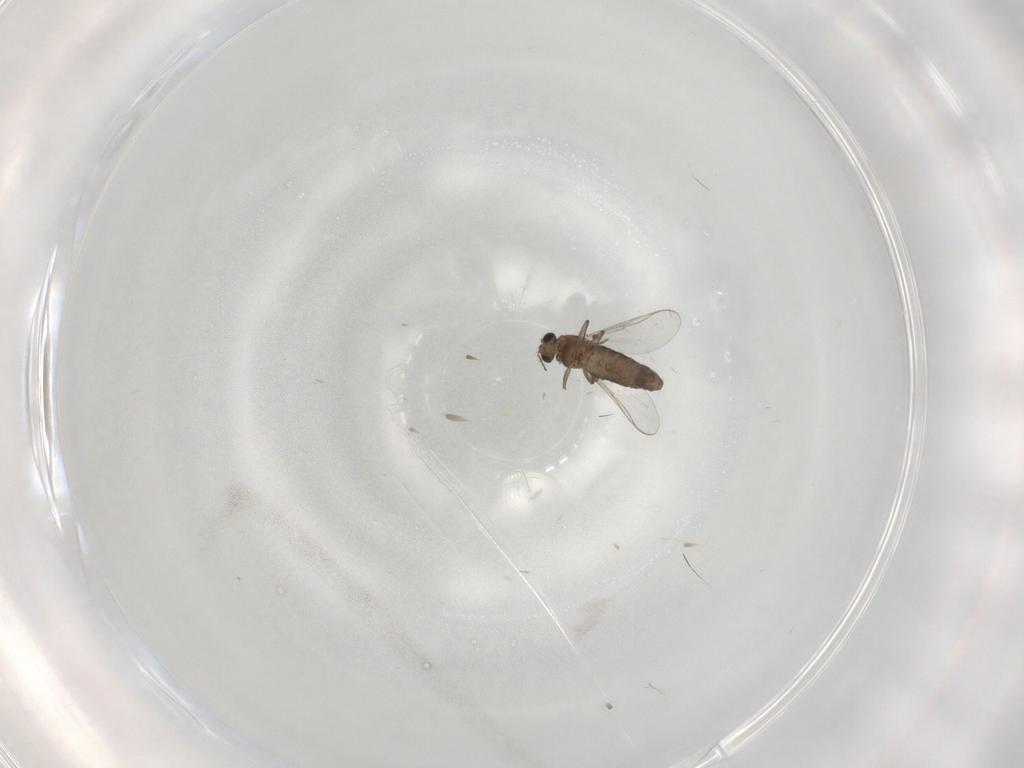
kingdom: Animalia
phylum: Arthropoda
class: Insecta
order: Diptera
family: Chironomidae
